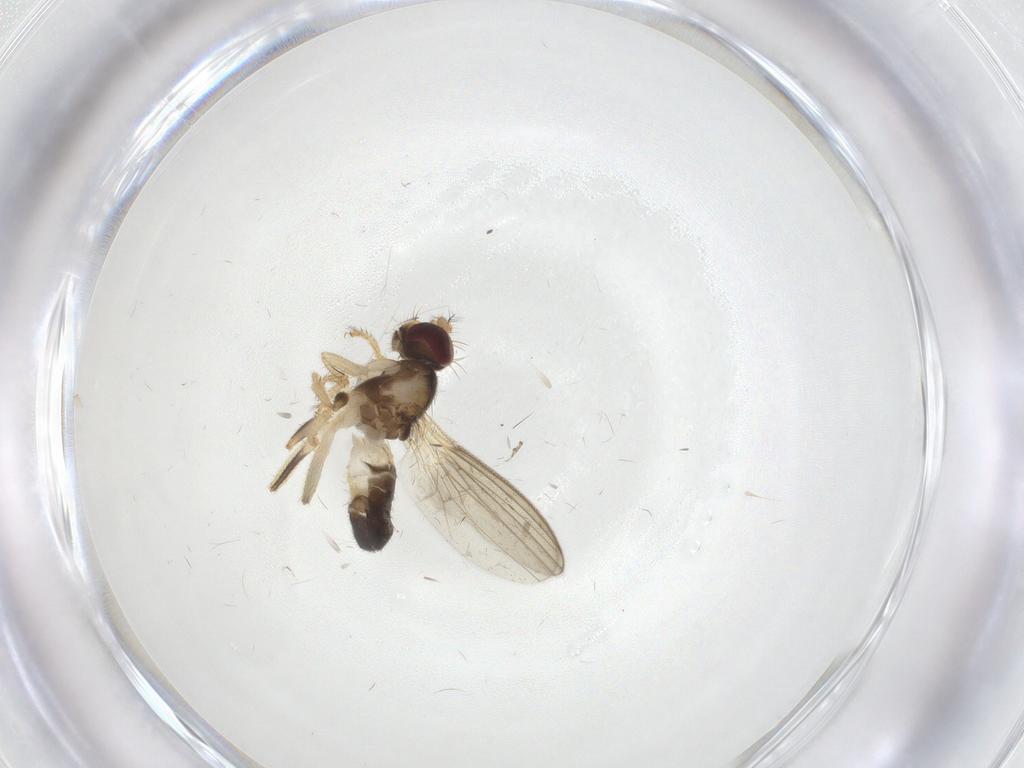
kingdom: Animalia
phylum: Arthropoda
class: Insecta
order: Diptera
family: Periscelididae
